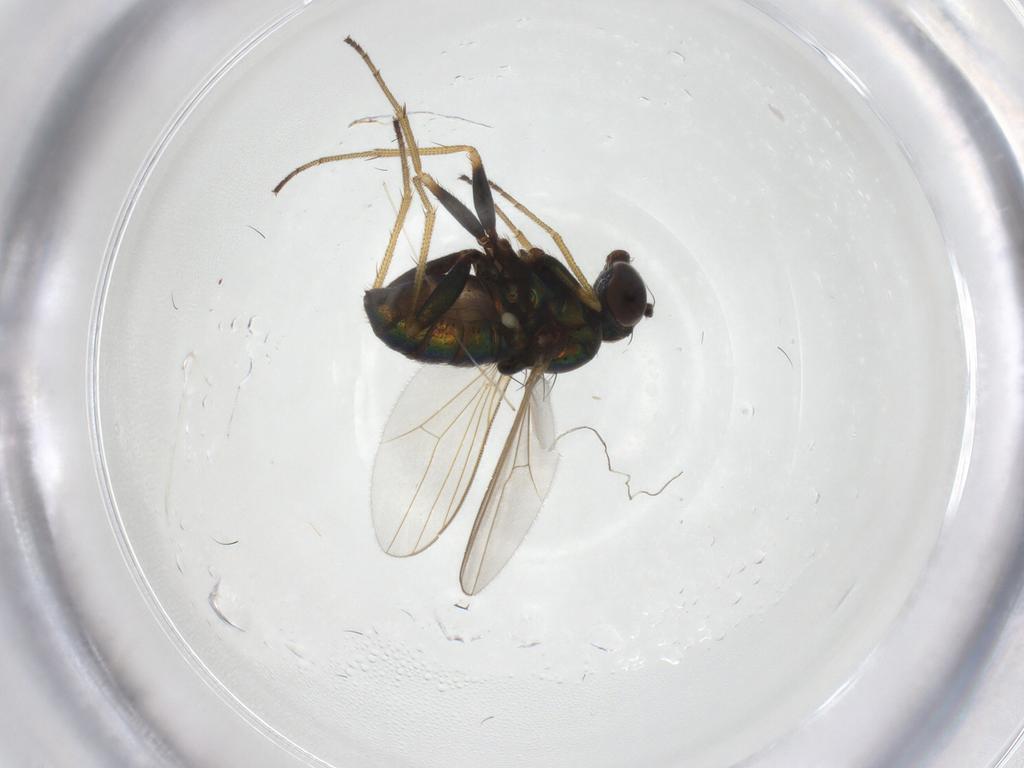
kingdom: Animalia
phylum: Arthropoda
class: Insecta
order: Diptera
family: Dolichopodidae
